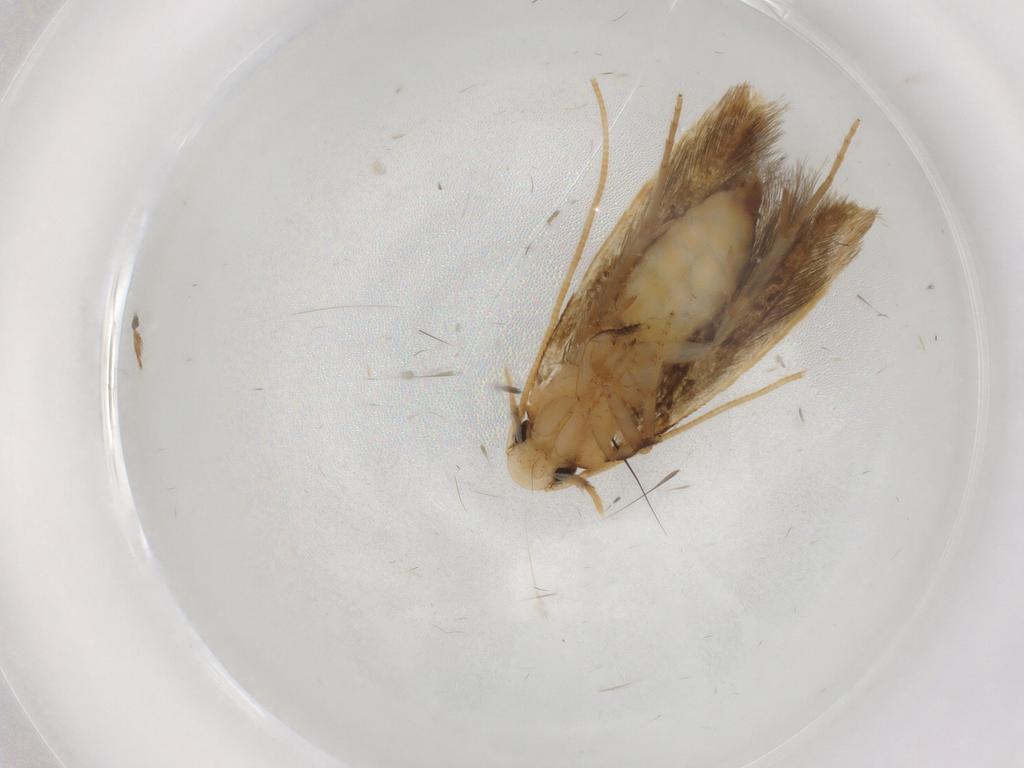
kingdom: Animalia
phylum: Arthropoda
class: Insecta
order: Lepidoptera
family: Tineidae
